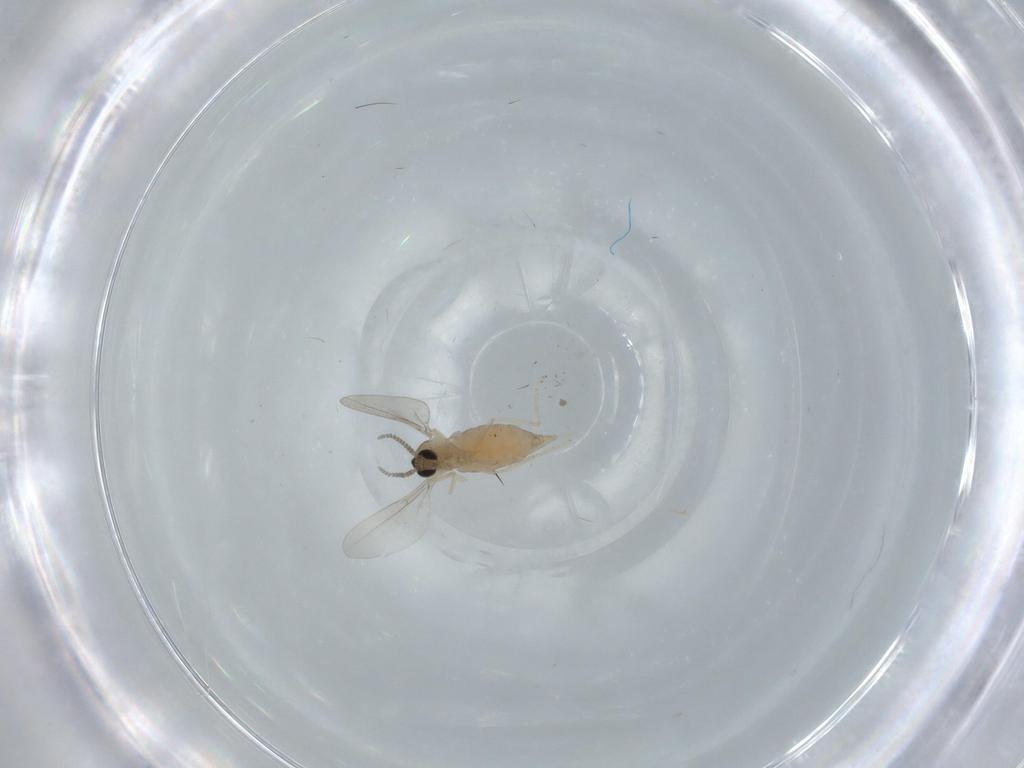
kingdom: Animalia
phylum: Arthropoda
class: Insecta
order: Diptera
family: Cecidomyiidae
